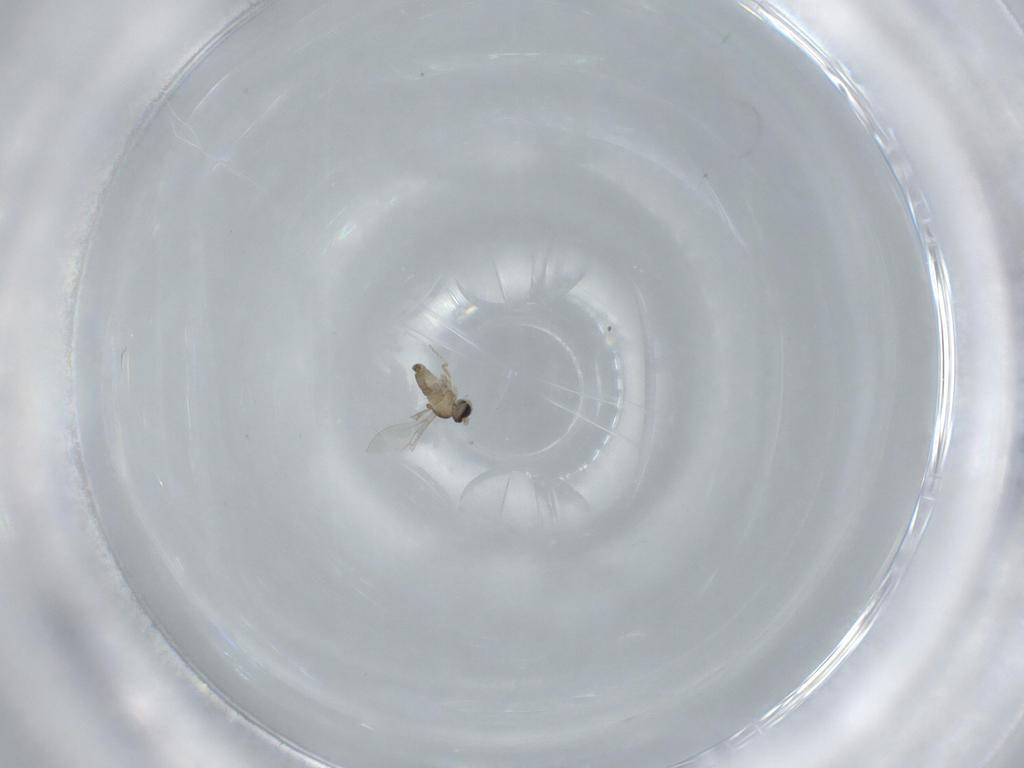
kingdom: Animalia
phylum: Arthropoda
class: Insecta
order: Diptera
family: Cecidomyiidae
